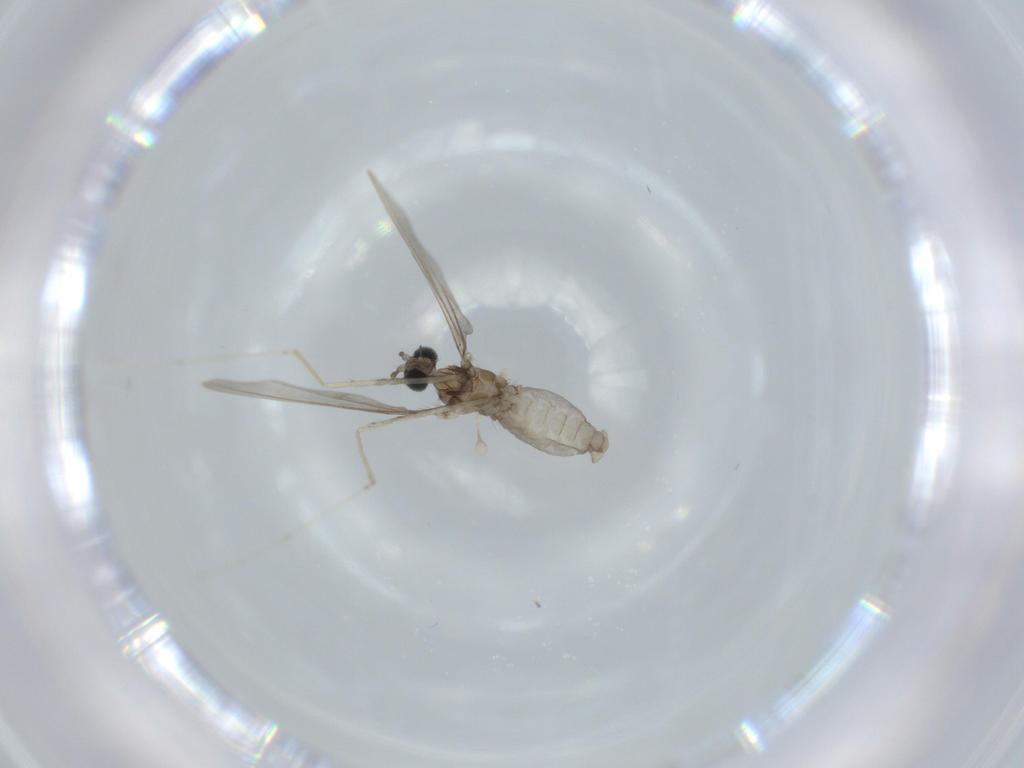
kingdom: Animalia
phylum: Arthropoda
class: Insecta
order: Diptera
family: Cecidomyiidae
